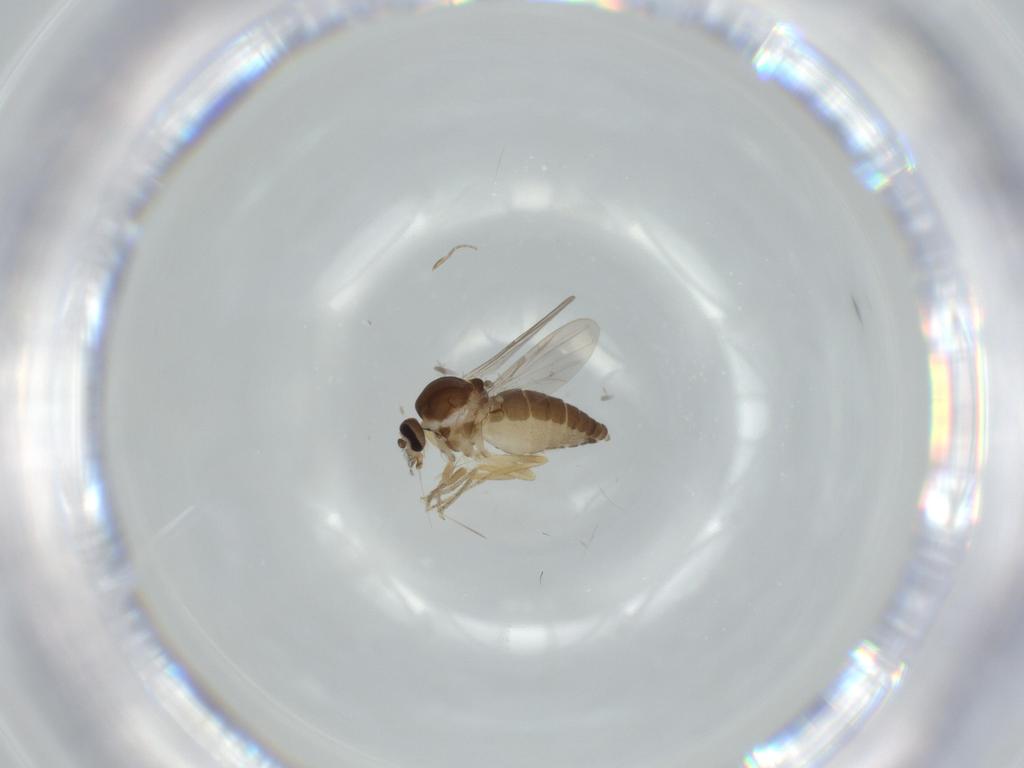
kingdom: Animalia
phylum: Arthropoda
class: Insecta
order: Diptera
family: Ceratopogonidae
